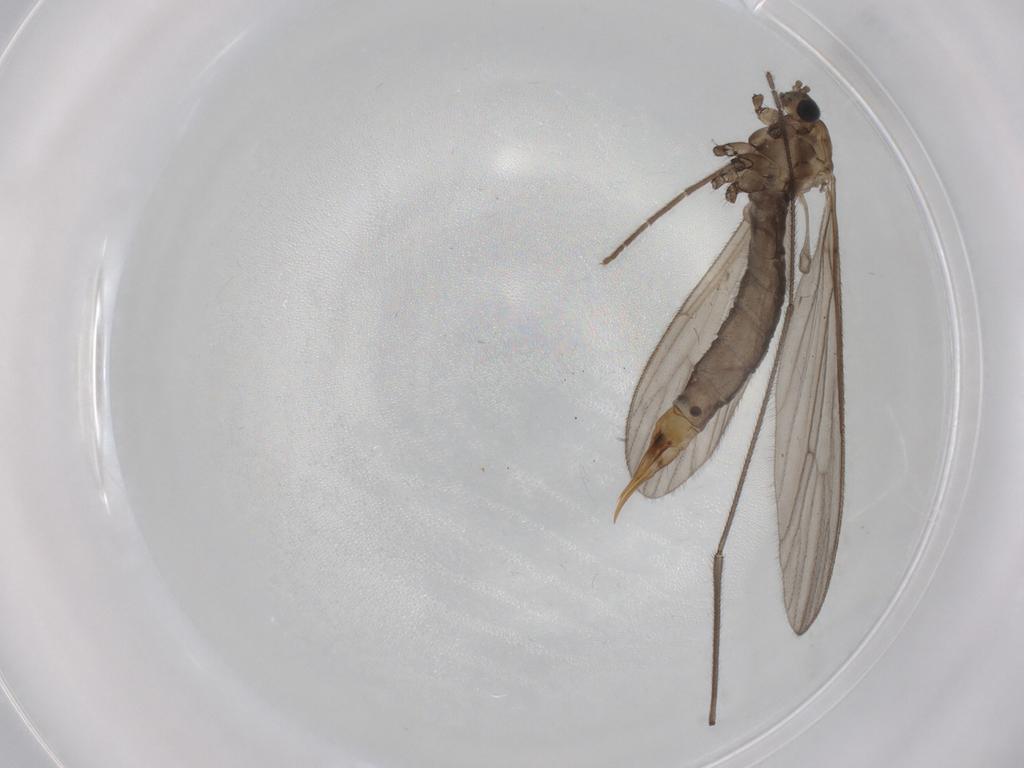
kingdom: Animalia
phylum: Arthropoda
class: Insecta
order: Diptera
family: Limoniidae
